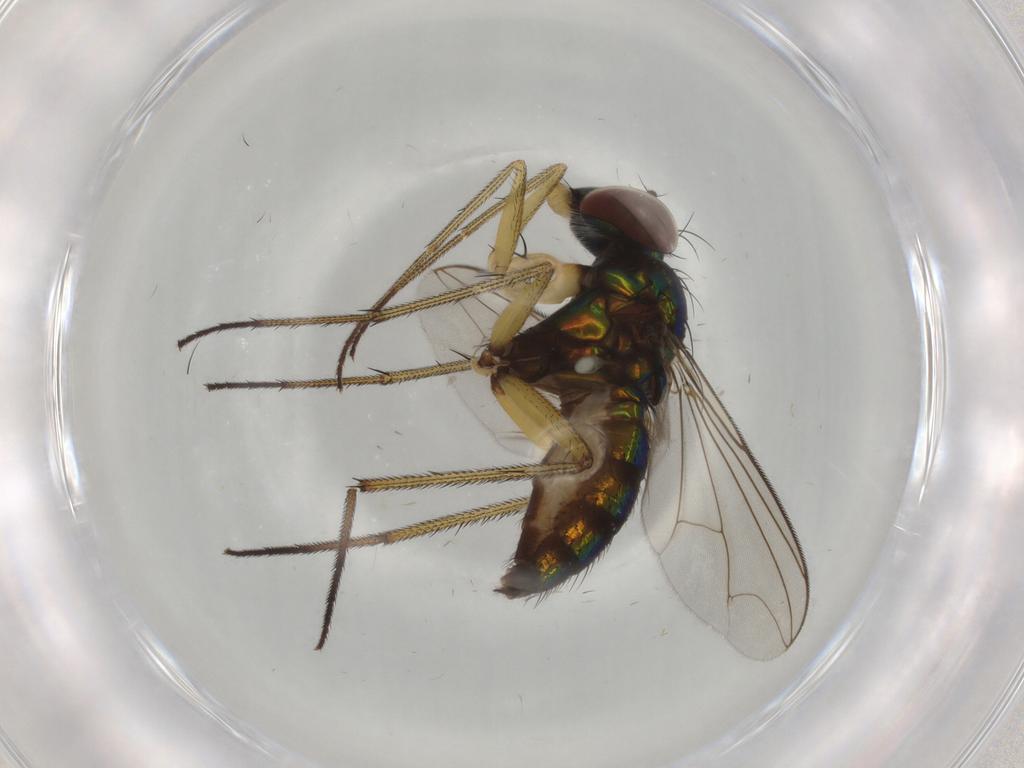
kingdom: Animalia
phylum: Arthropoda
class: Insecta
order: Diptera
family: Dolichopodidae
